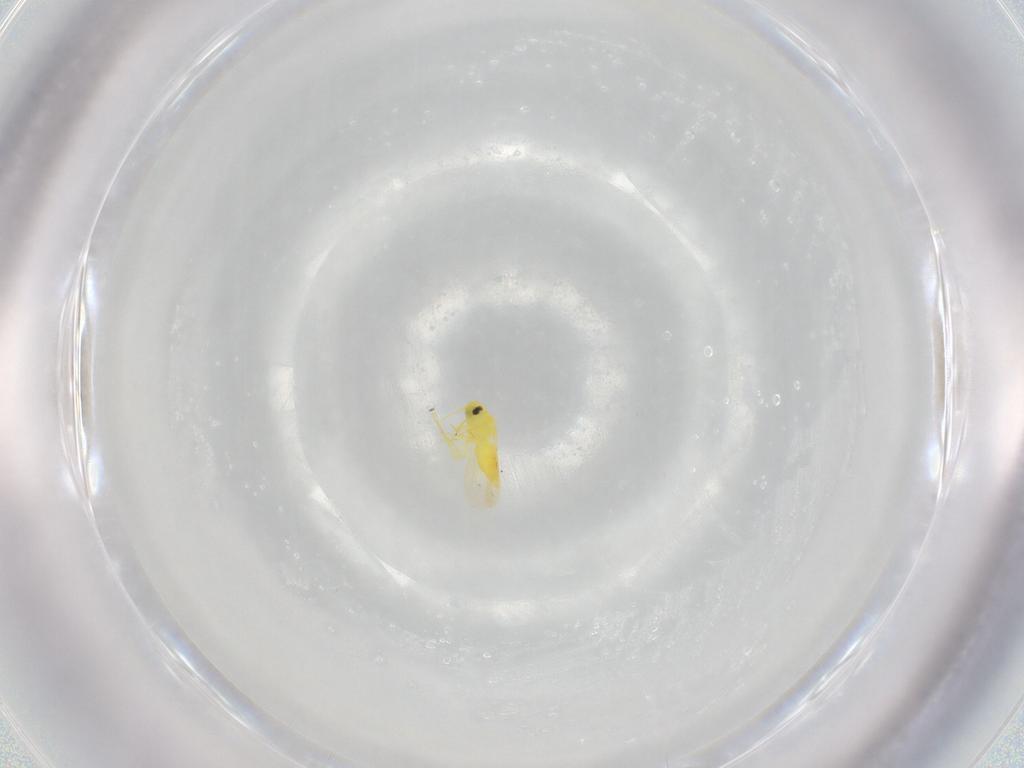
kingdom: Animalia
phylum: Arthropoda
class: Insecta
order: Hemiptera
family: Aleyrodidae
